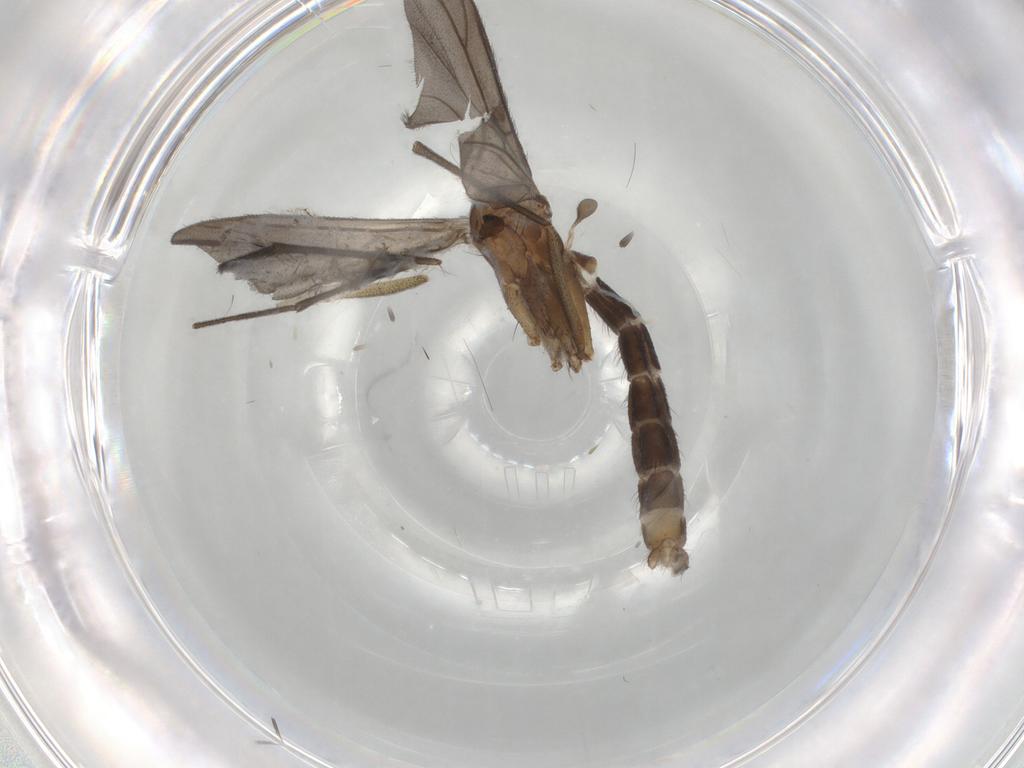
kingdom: Animalia
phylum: Arthropoda
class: Insecta
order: Diptera
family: Ditomyiidae
